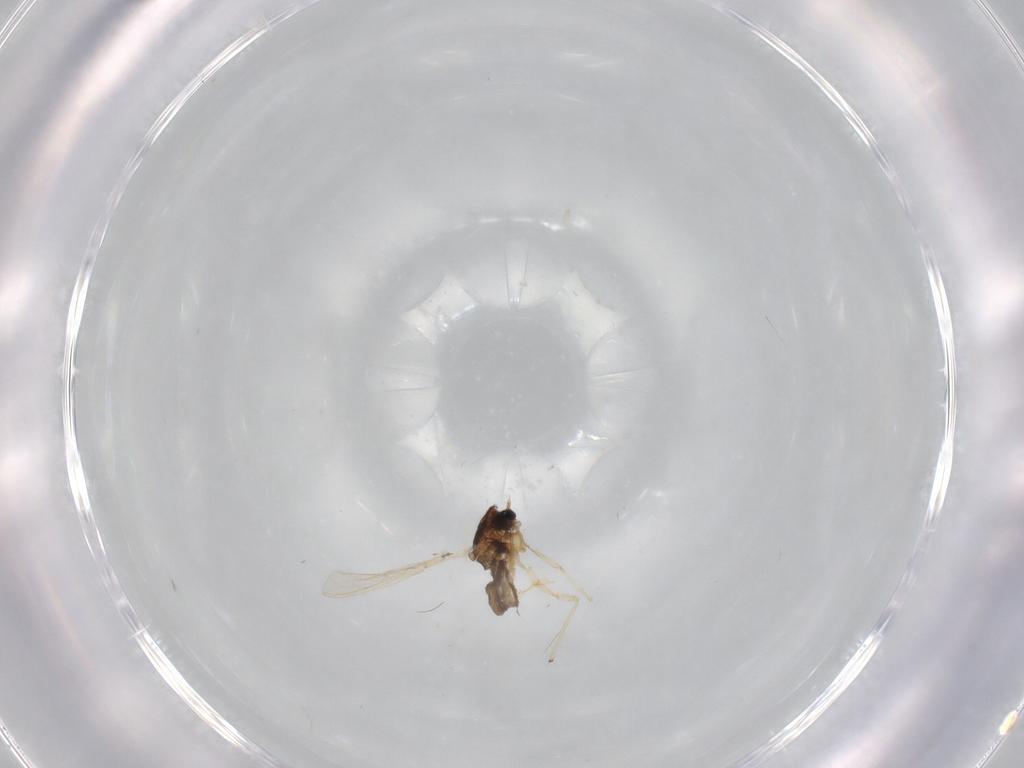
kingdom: Animalia
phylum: Arthropoda
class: Insecta
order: Diptera
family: Chironomidae
